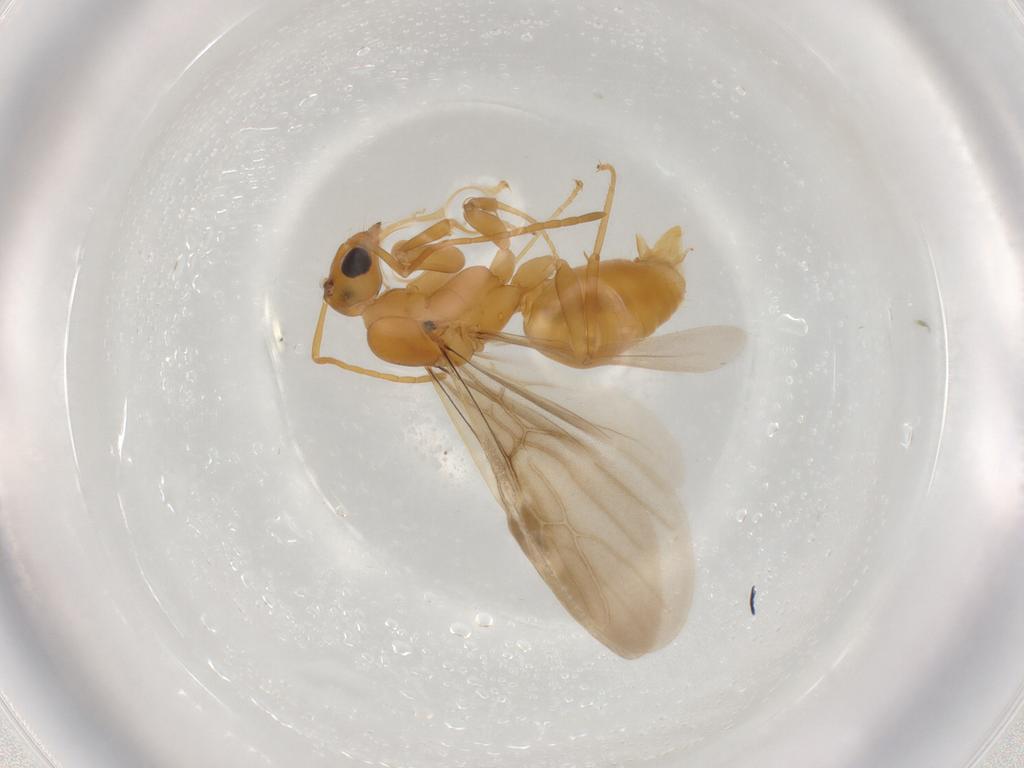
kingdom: Animalia
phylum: Arthropoda
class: Insecta
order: Hymenoptera
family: Formicidae
